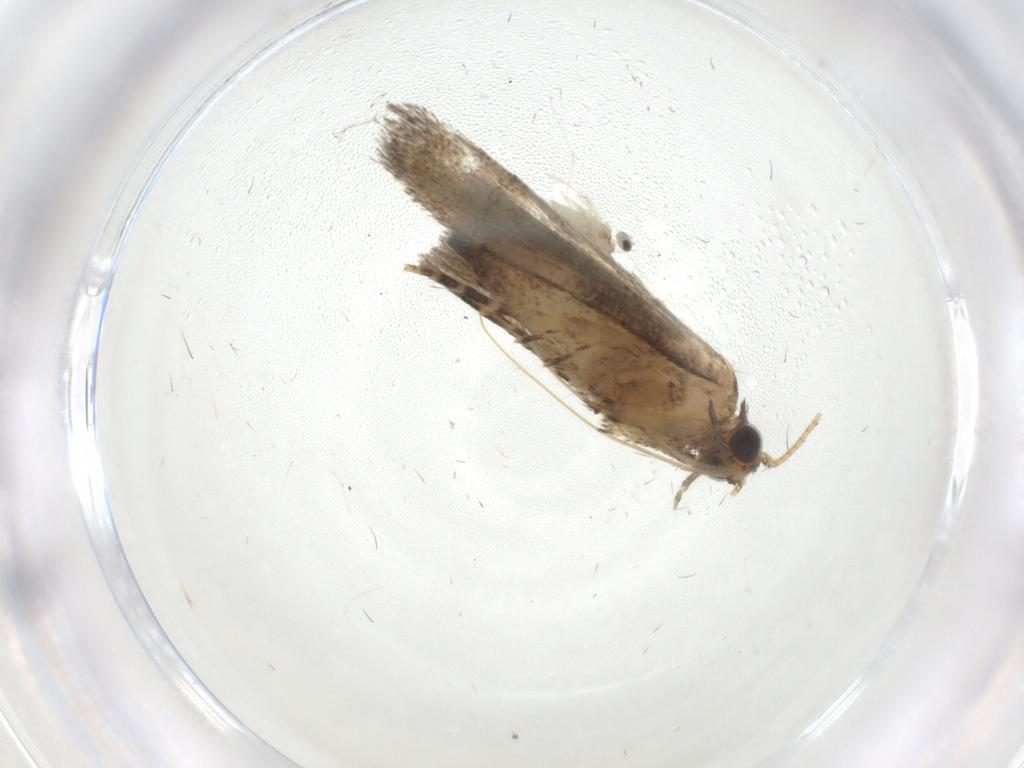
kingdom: Animalia
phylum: Arthropoda
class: Insecta
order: Lepidoptera
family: Depressariidae
